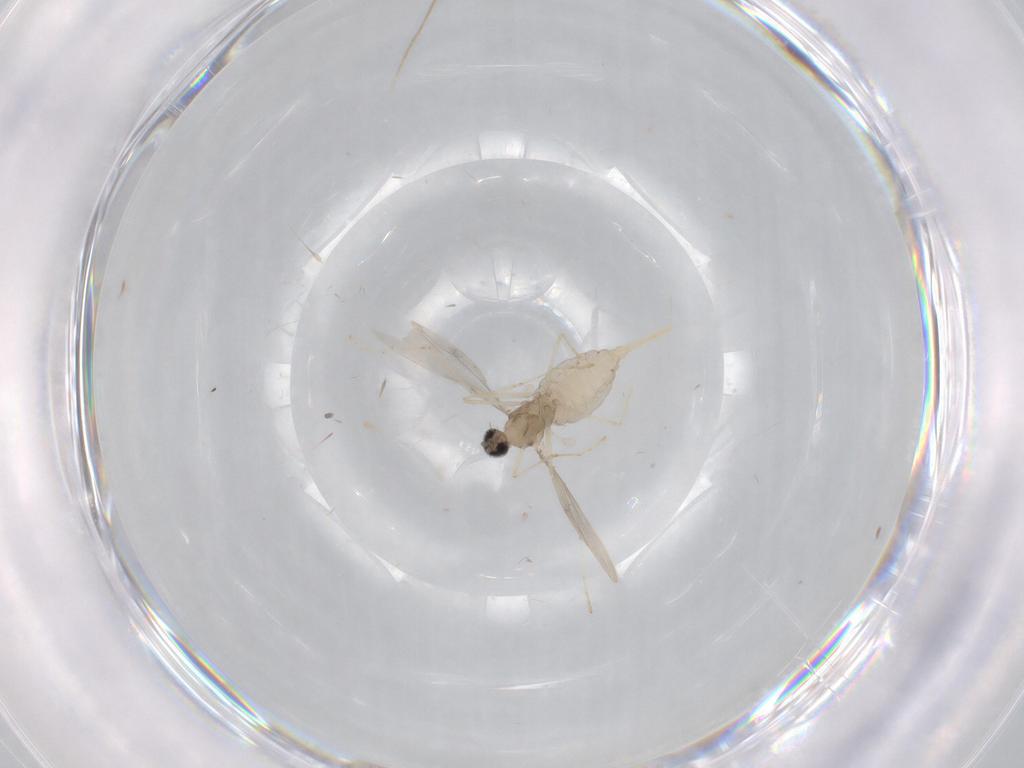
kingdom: Animalia
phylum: Arthropoda
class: Insecta
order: Diptera
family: Cecidomyiidae
